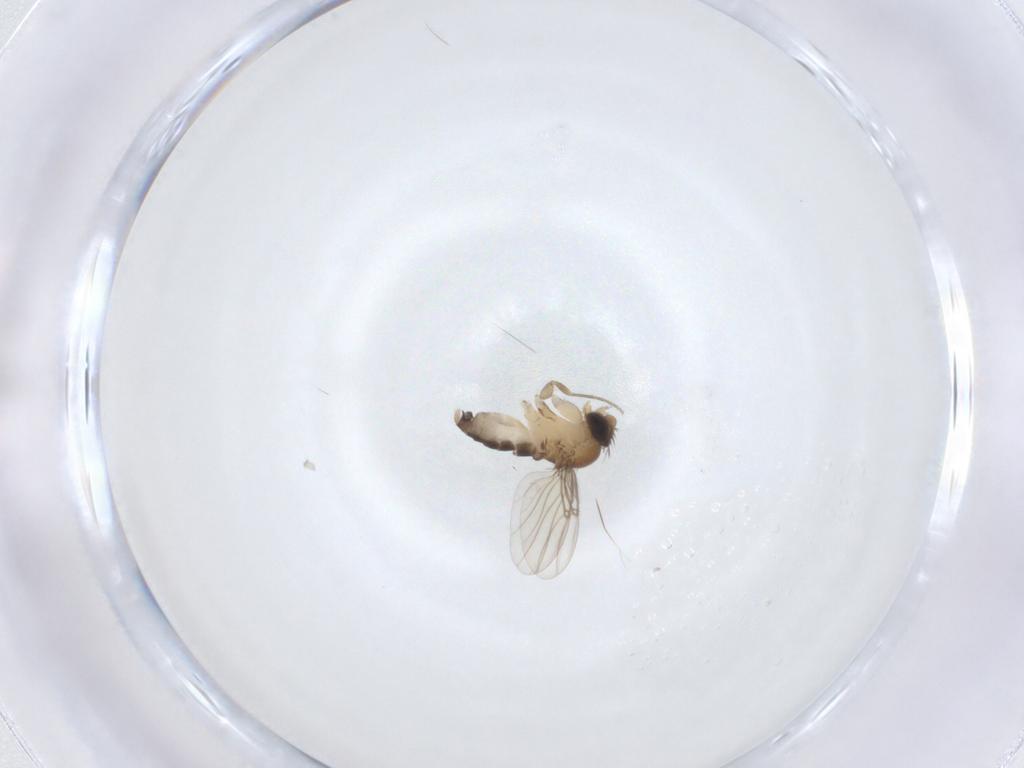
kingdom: Animalia
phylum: Arthropoda
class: Insecta
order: Diptera
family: Phoridae
